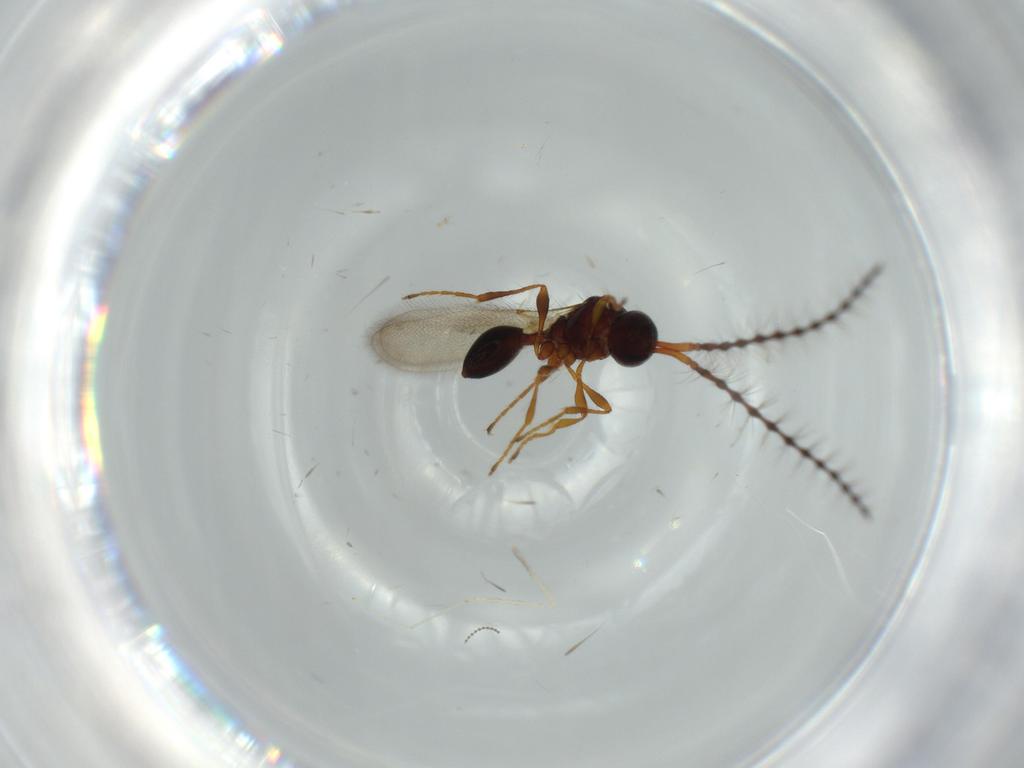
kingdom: Animalia
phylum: Arthropoda
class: Insecta
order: Hymenoptera
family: Diapriidae
